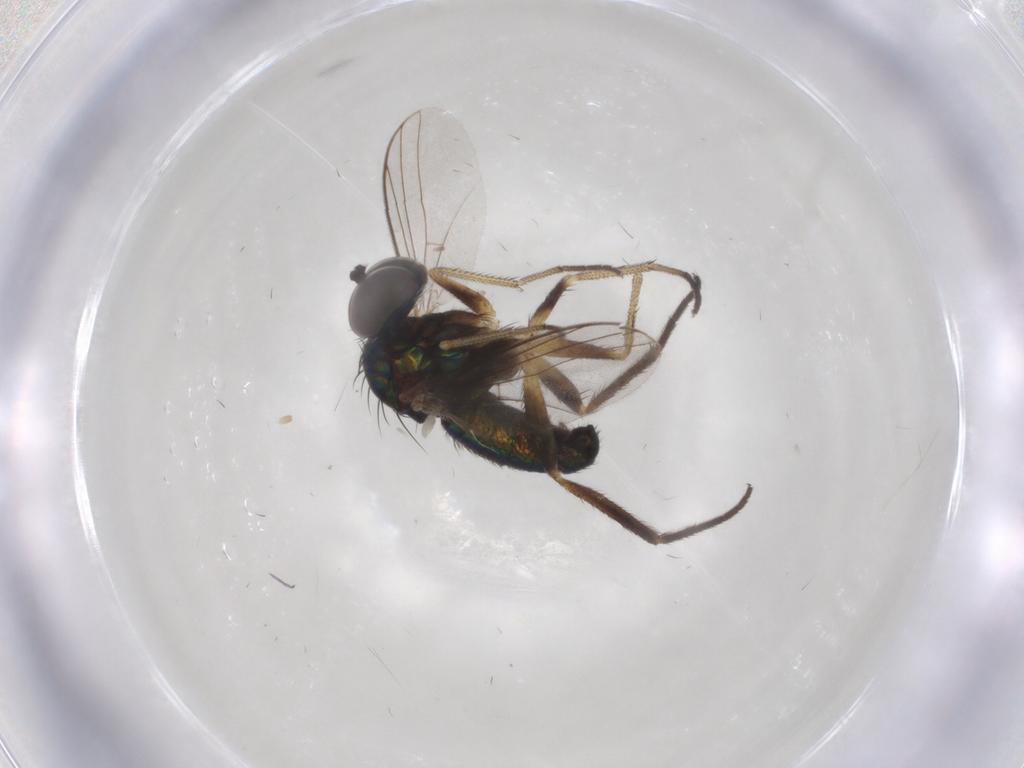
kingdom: Animalia
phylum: Arthropoda
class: Insecta
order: Diptera
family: Dolichopodidae
